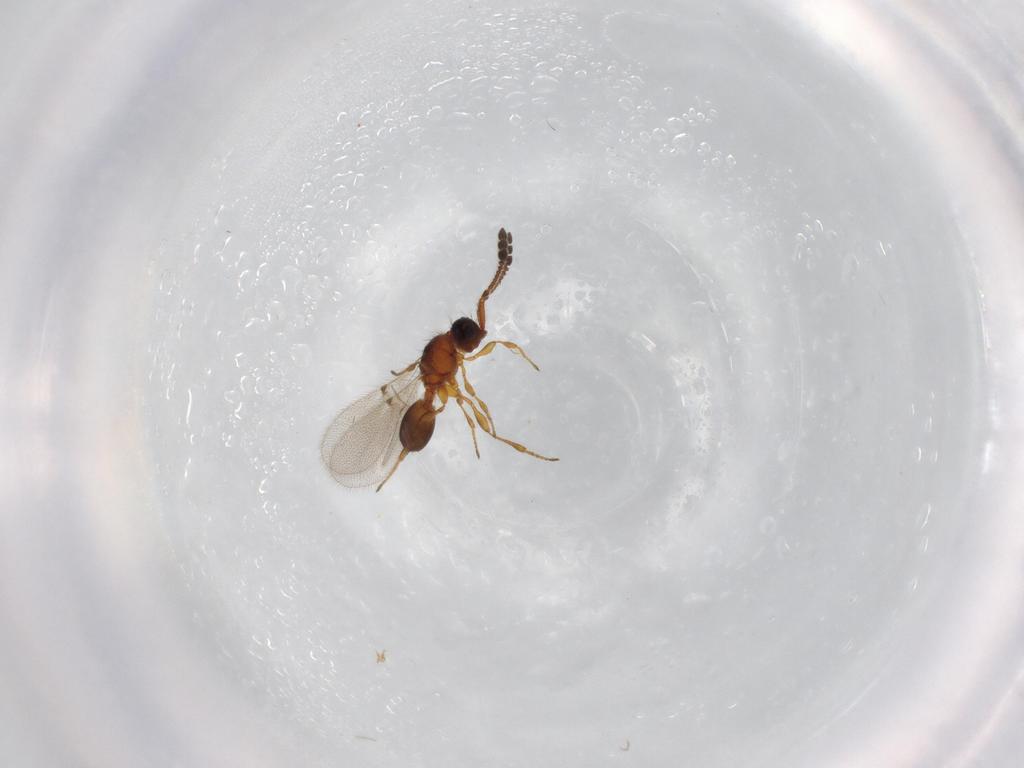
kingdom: Animalia
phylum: Arthropoda
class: Insecta
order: Hymenoptera
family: Diapriidae
